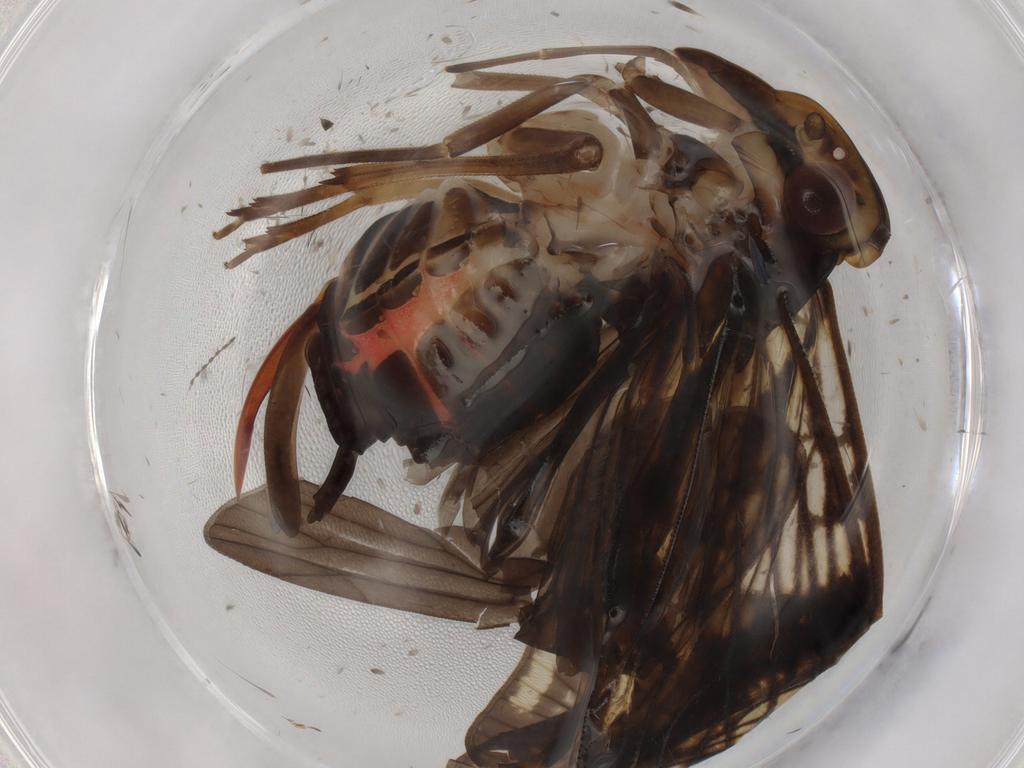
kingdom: Animalia
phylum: Arthropoda
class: Insecta
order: Hemiptera
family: Cixiidae
